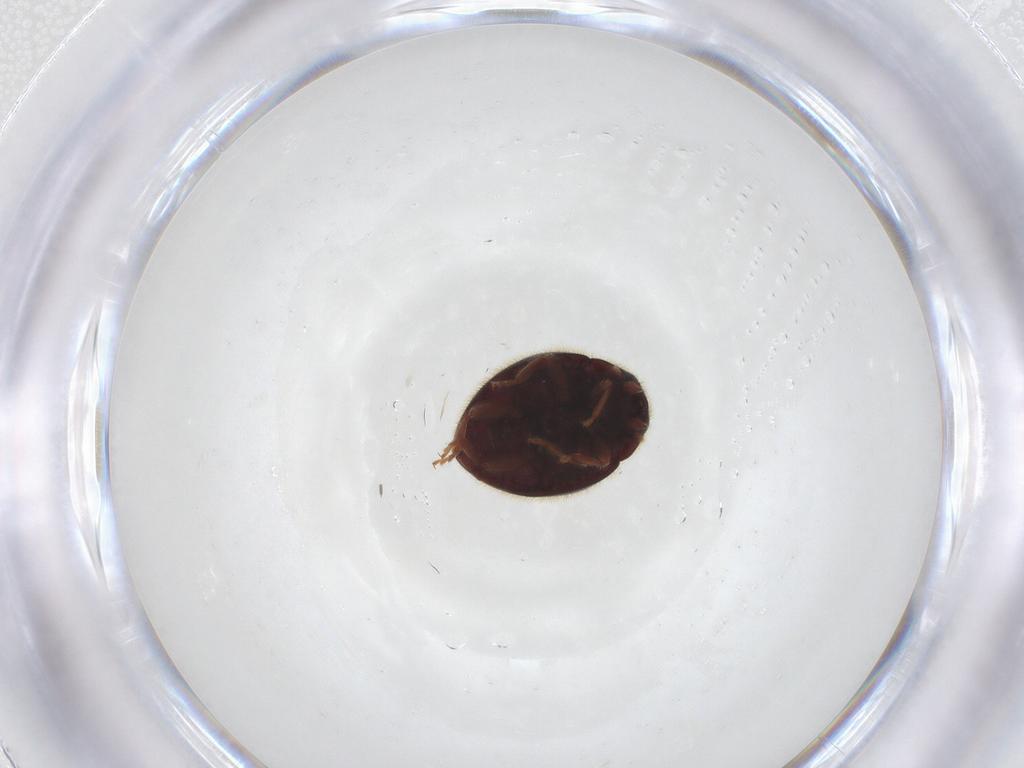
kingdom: Animalia
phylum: Arthropoda
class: Insecta
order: Coleoptera
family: Coccinellidae
